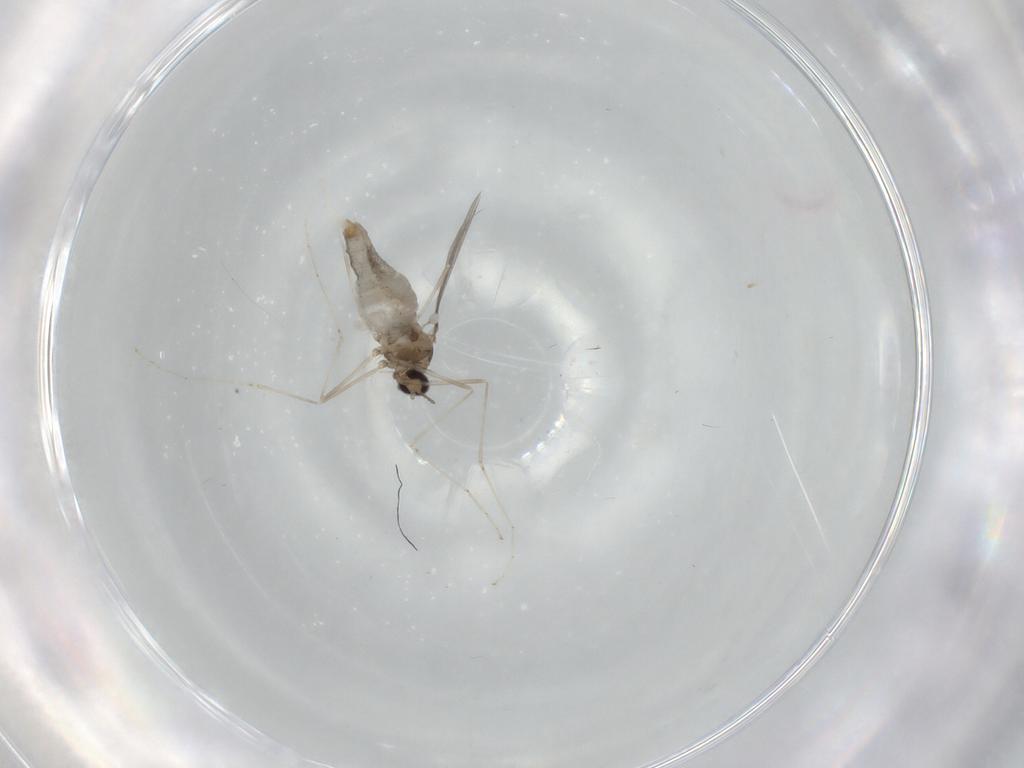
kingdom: Animalia
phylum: Arthropoda
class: Insecta
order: Diptera
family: Cecidomyiidae
